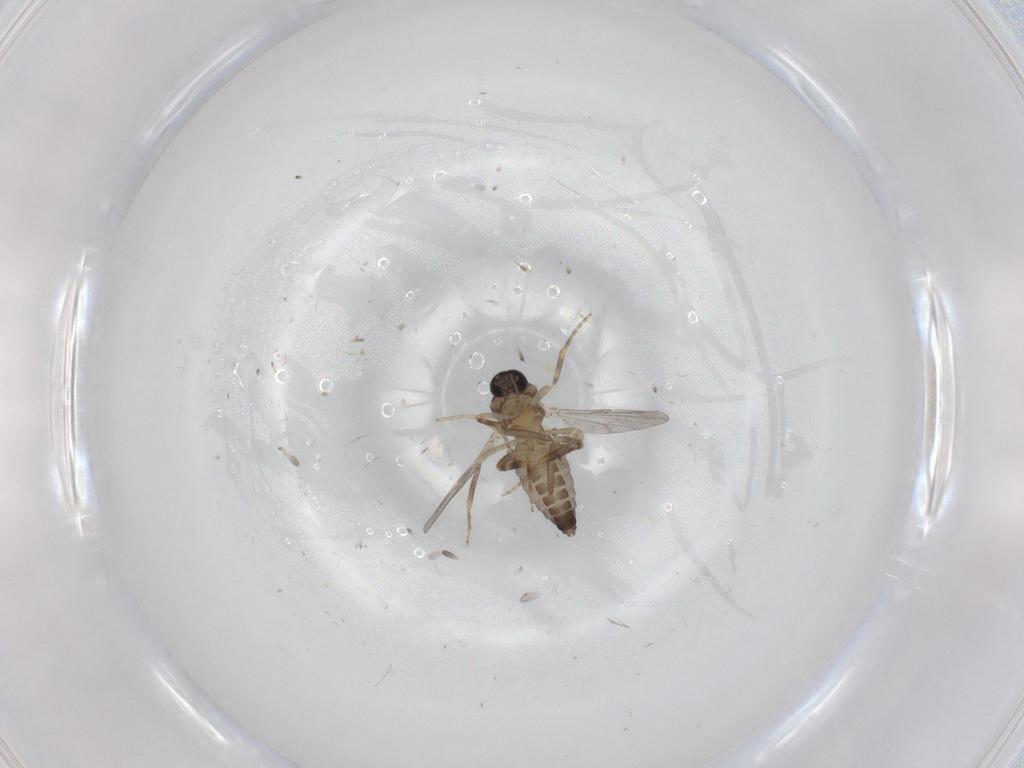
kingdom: Animalia
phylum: Arthropoda
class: Insecta
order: Diptera
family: Ceratopogonidae
